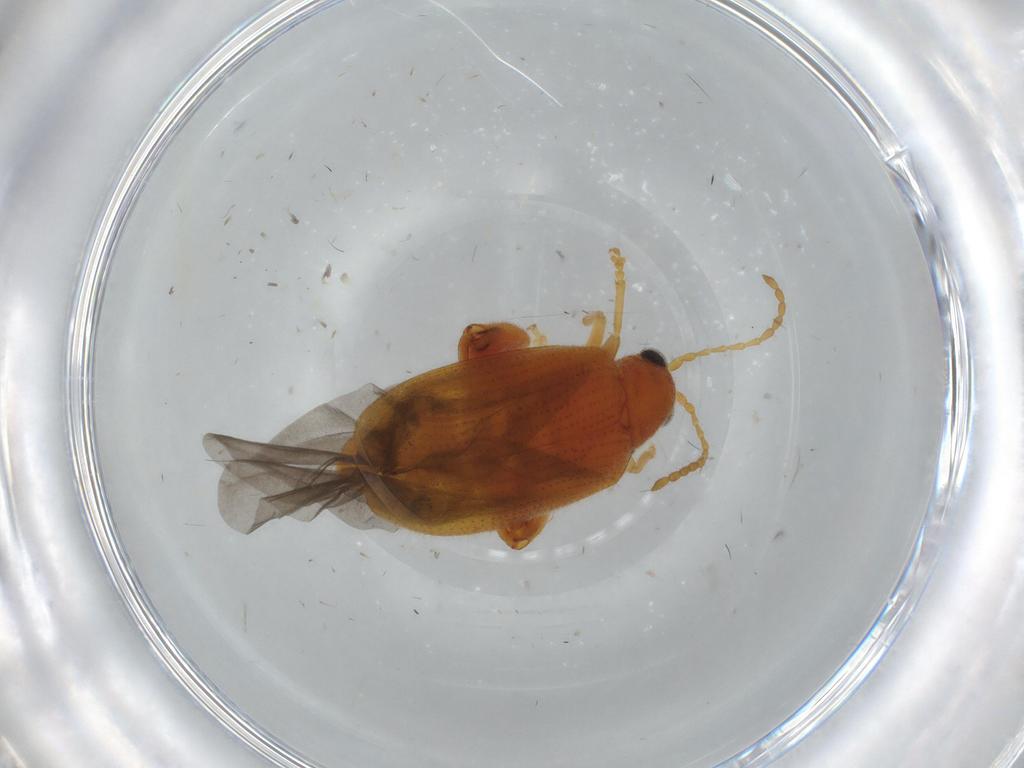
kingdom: Animalia
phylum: Arthropoda
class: Insecta
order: Coleoptera
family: Chrysomelidae
